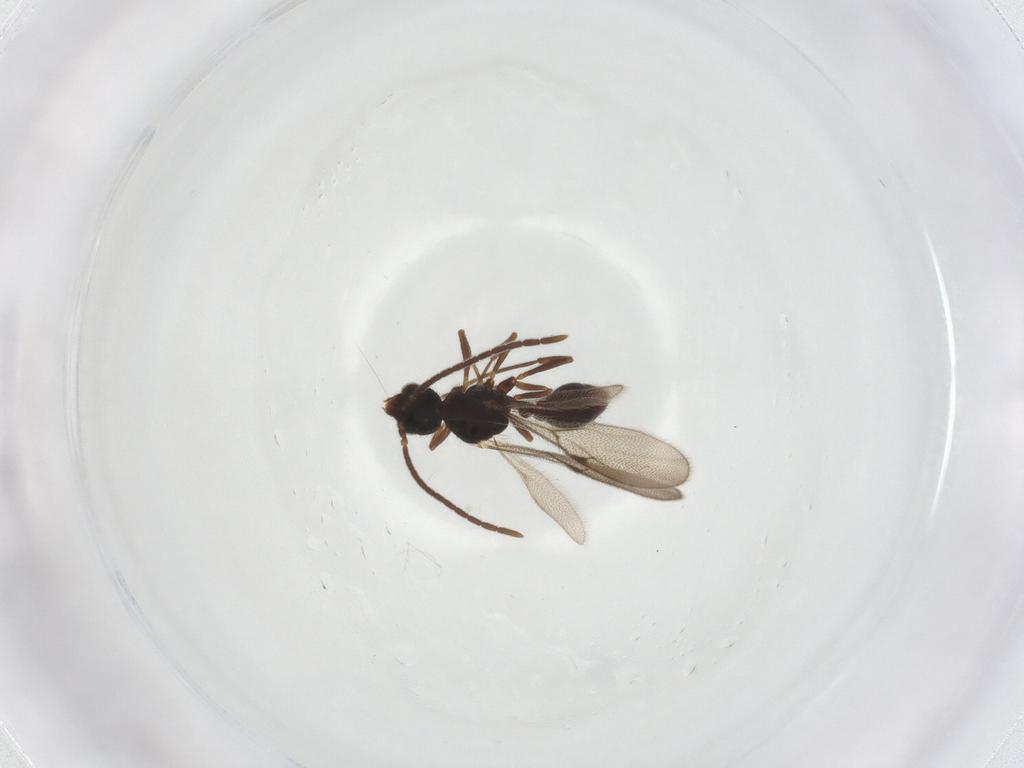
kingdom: Animalia
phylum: Arthropoda
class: Insecta
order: Hymenoptera
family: Formicidae
